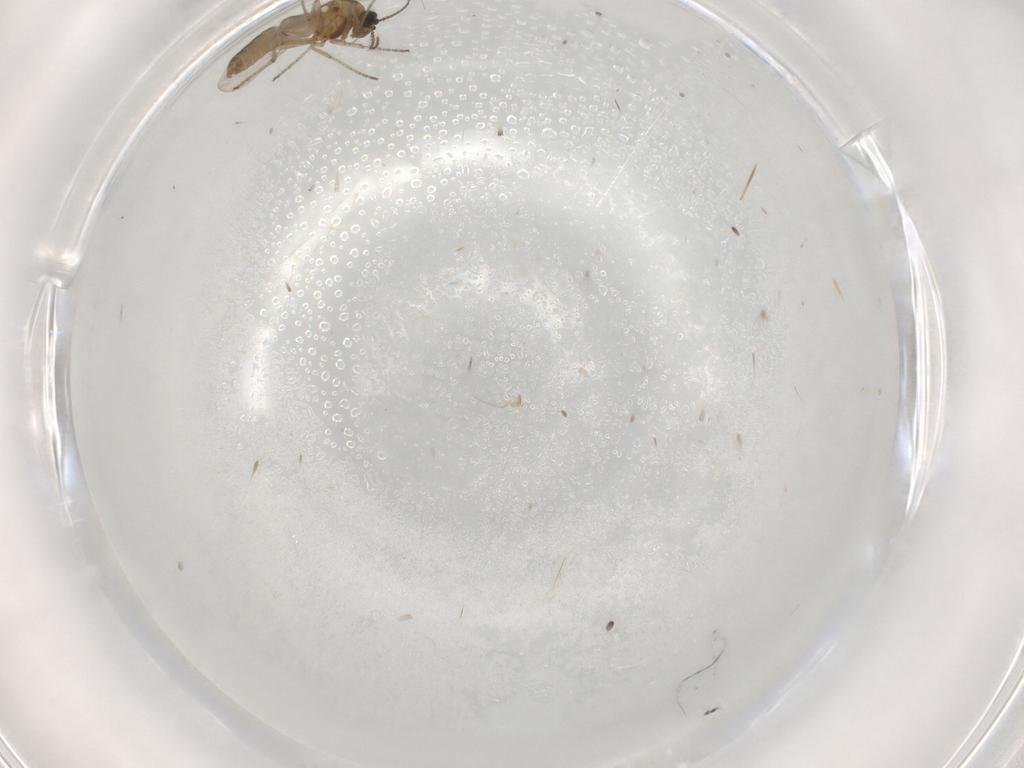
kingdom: Animalia
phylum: Arthropoda
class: Insecta
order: Diptera
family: Ceratopogonidae
